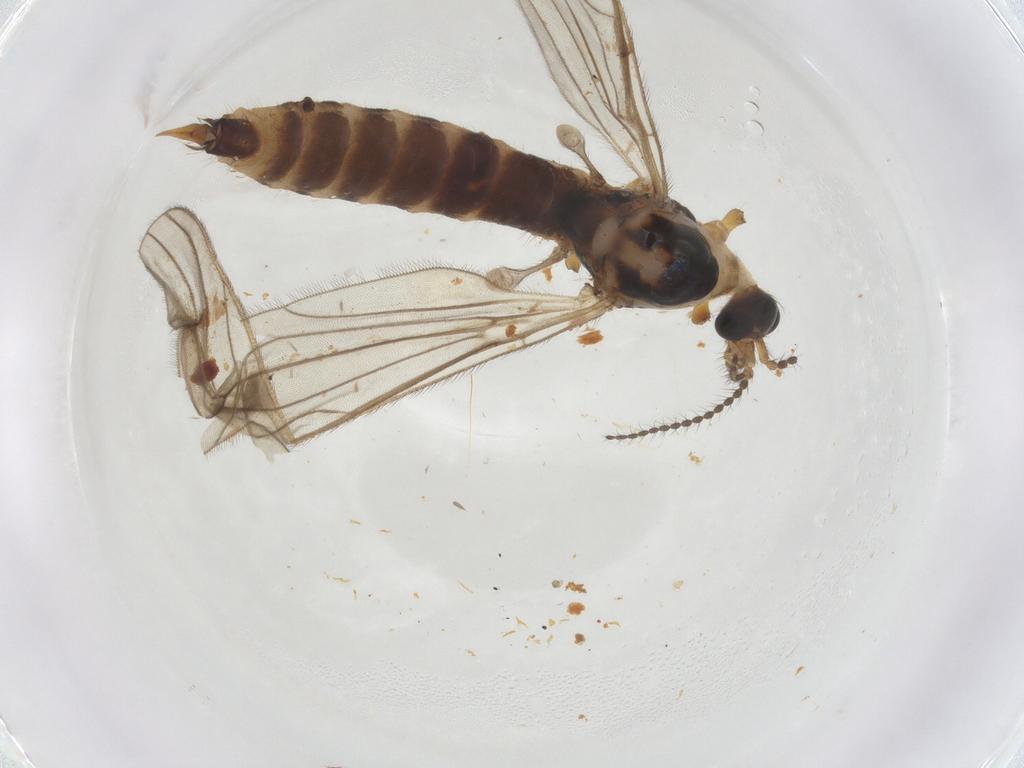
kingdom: Animalia
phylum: Arthropoda
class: Insecta
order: Diptera
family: Limoniidae
